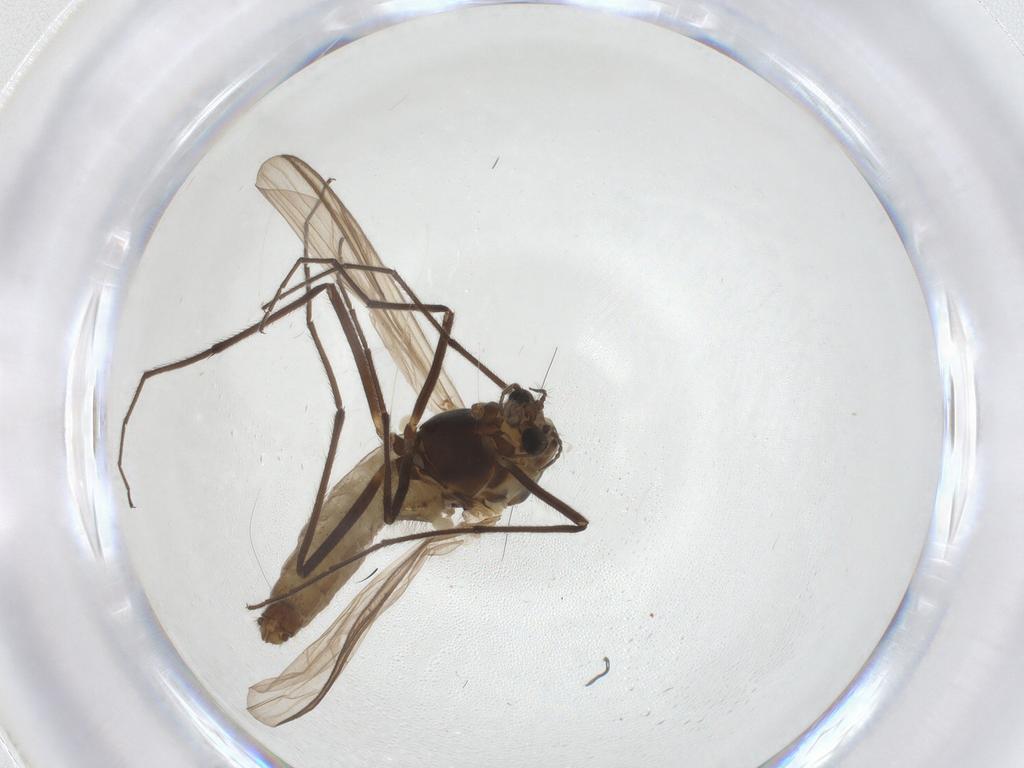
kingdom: Animalia
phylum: Arthropoda
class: Insecta
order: Diptera
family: Chironomidae
